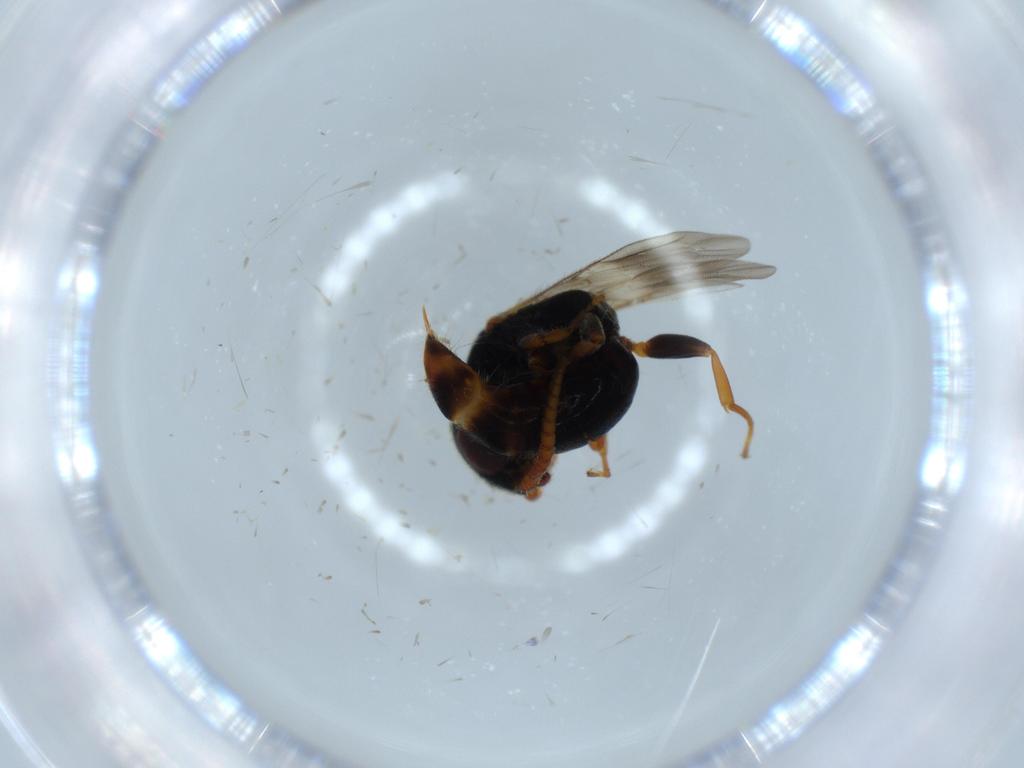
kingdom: Animalia
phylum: Arthropoda
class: Insecta
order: Hymenoptera
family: Bethylidae
